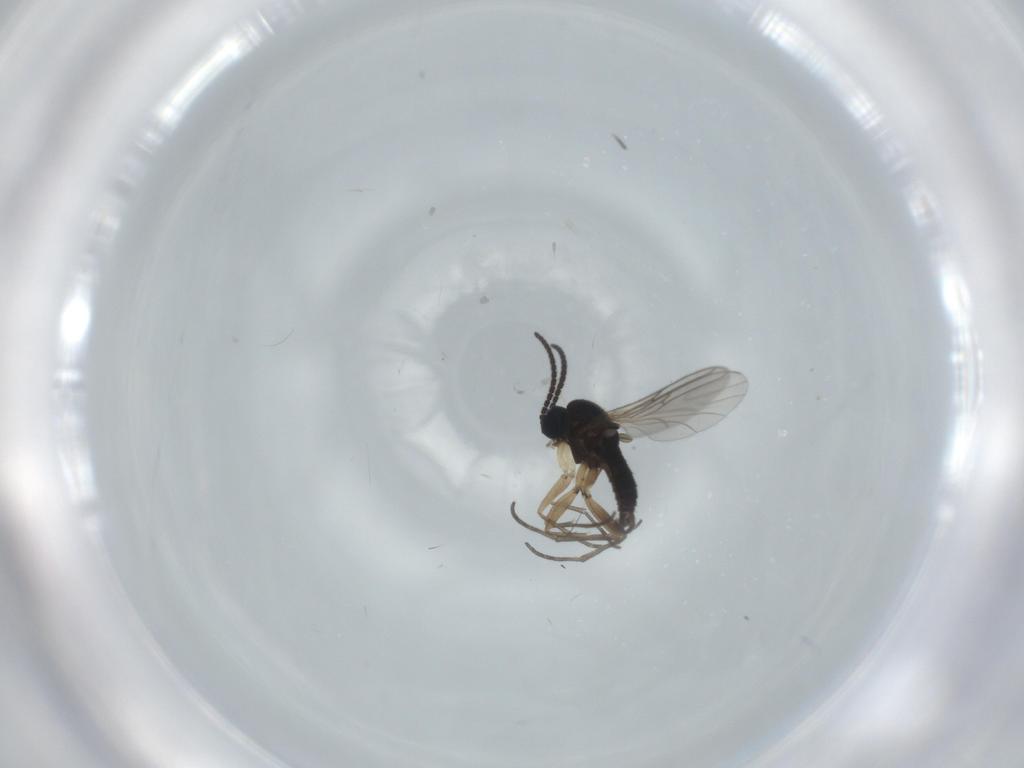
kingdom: Animalia
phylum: Arthropoda
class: Insecta
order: Diptera
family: Sciaridae
